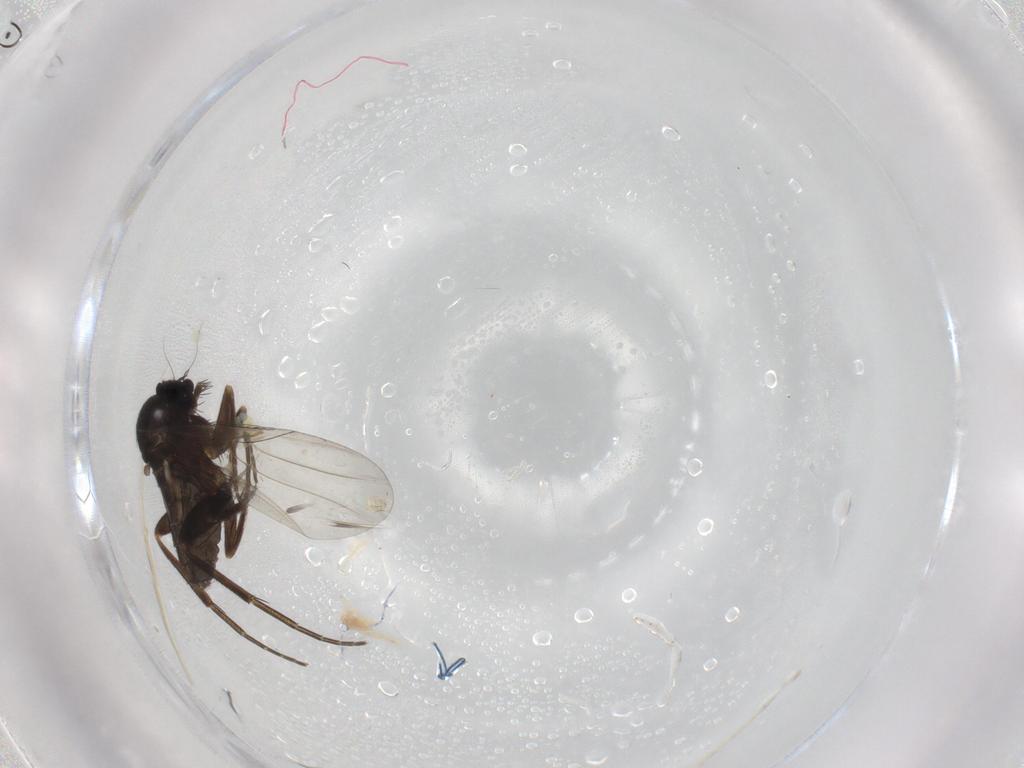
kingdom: Animalia
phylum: Arthropoda
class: Insecta
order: Diptera
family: Phoridae
